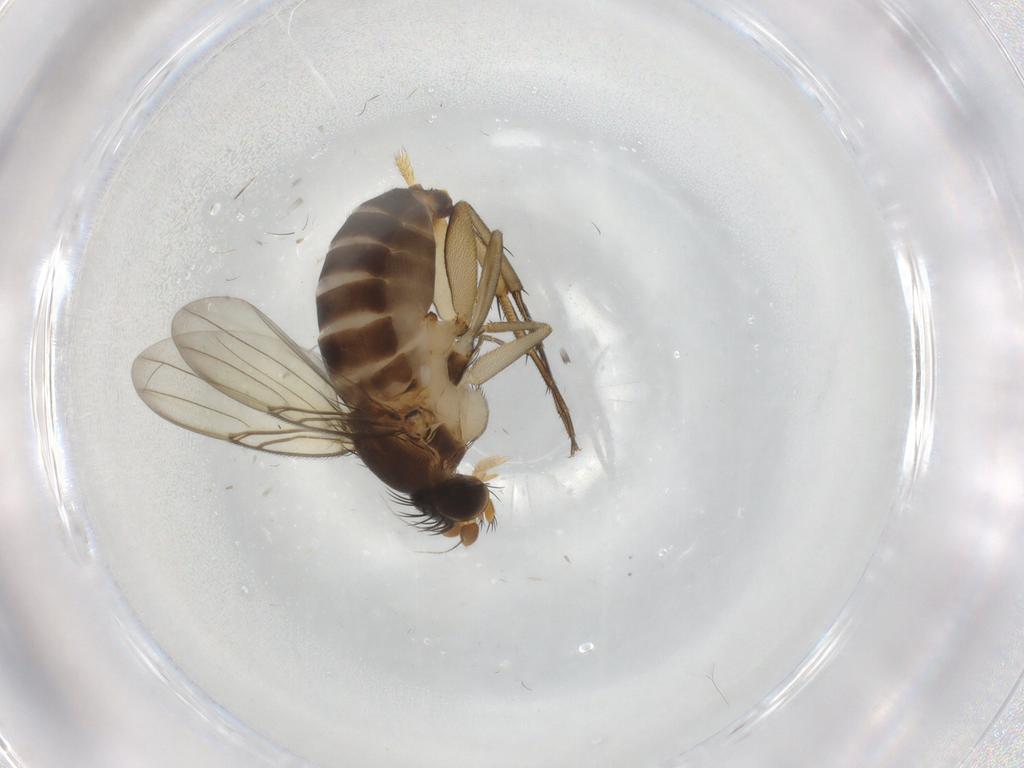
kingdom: Animalia
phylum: Arthropoda
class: Insecta
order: Diptera
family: Phoridae
